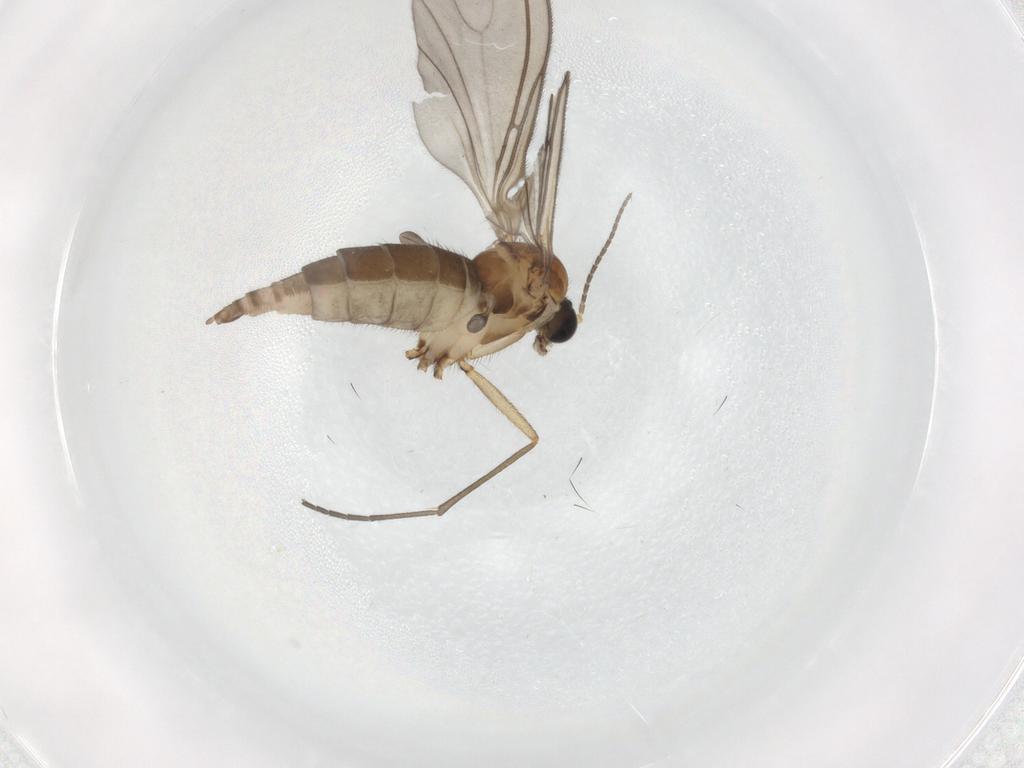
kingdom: Animalia
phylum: Arthropoda
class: Insecta
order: Diptera
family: Sciaridae
